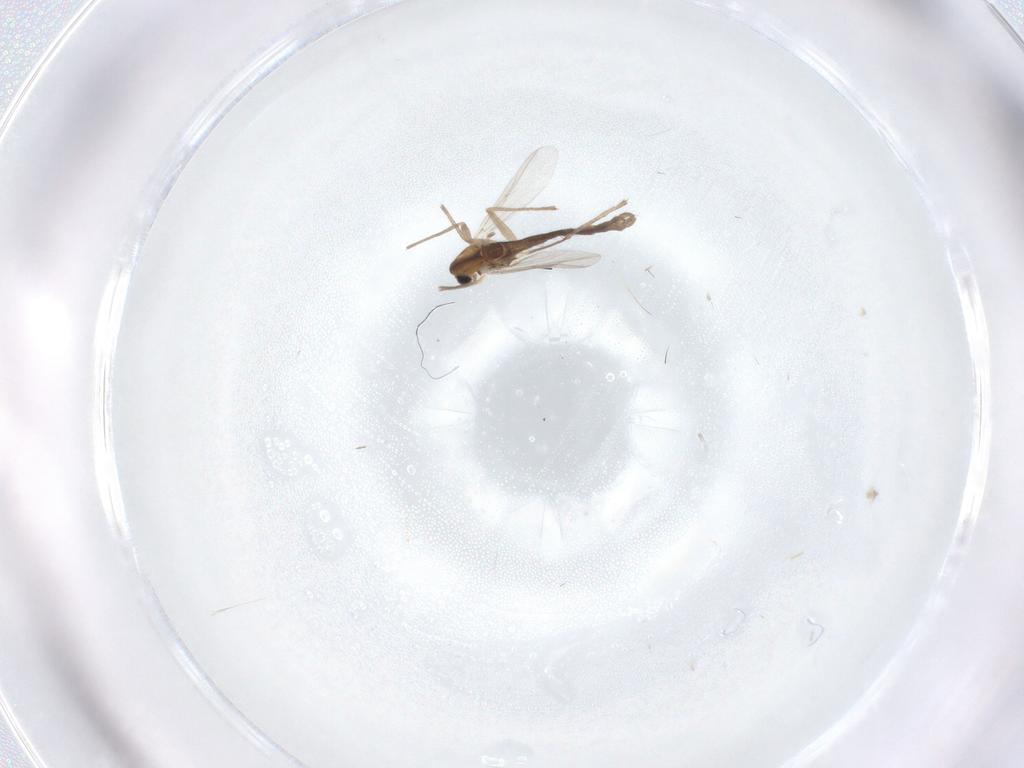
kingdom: Animalia
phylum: Arthropoda
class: Insecta
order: Diptera
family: Chironomidae
